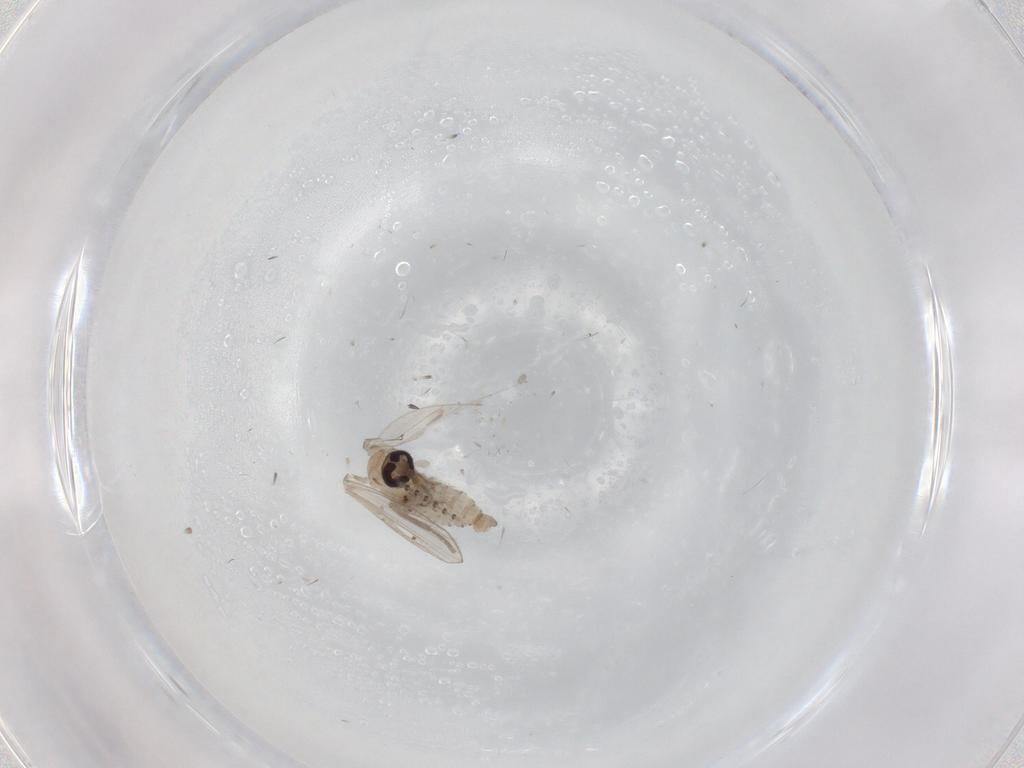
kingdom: Animalia
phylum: Arthropoda
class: Insecta
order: Diptera
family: Psychodidae
